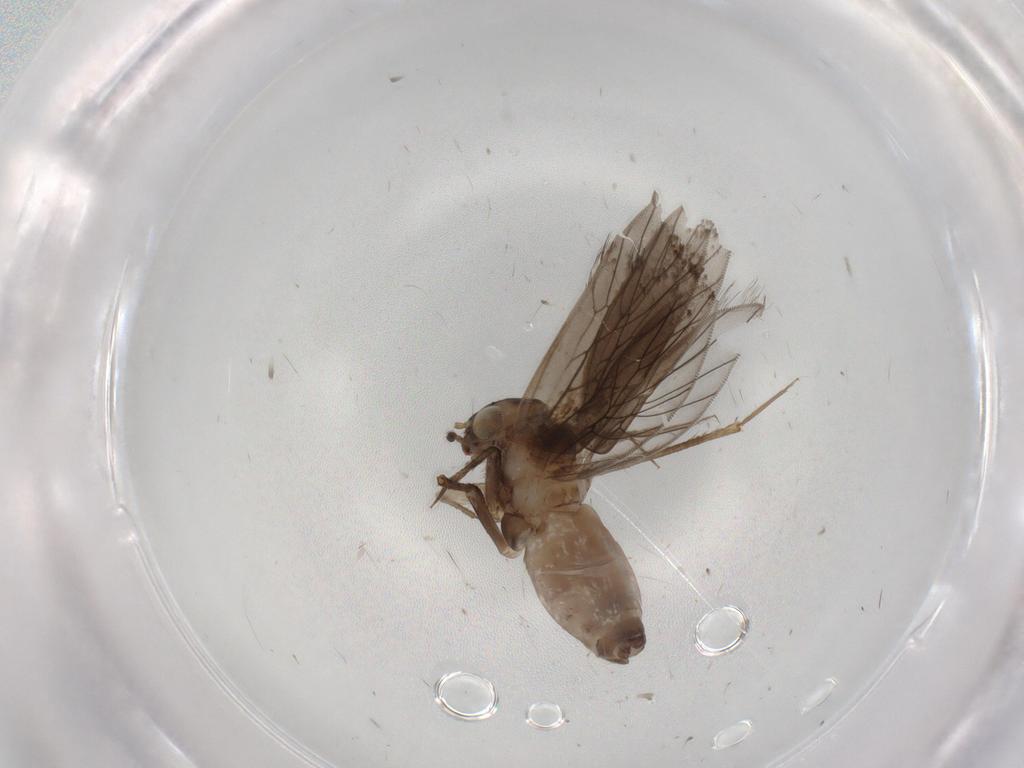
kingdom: Animalia
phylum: Arthropoda
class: Insecta
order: Psocodea
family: Lepidopsocidae
